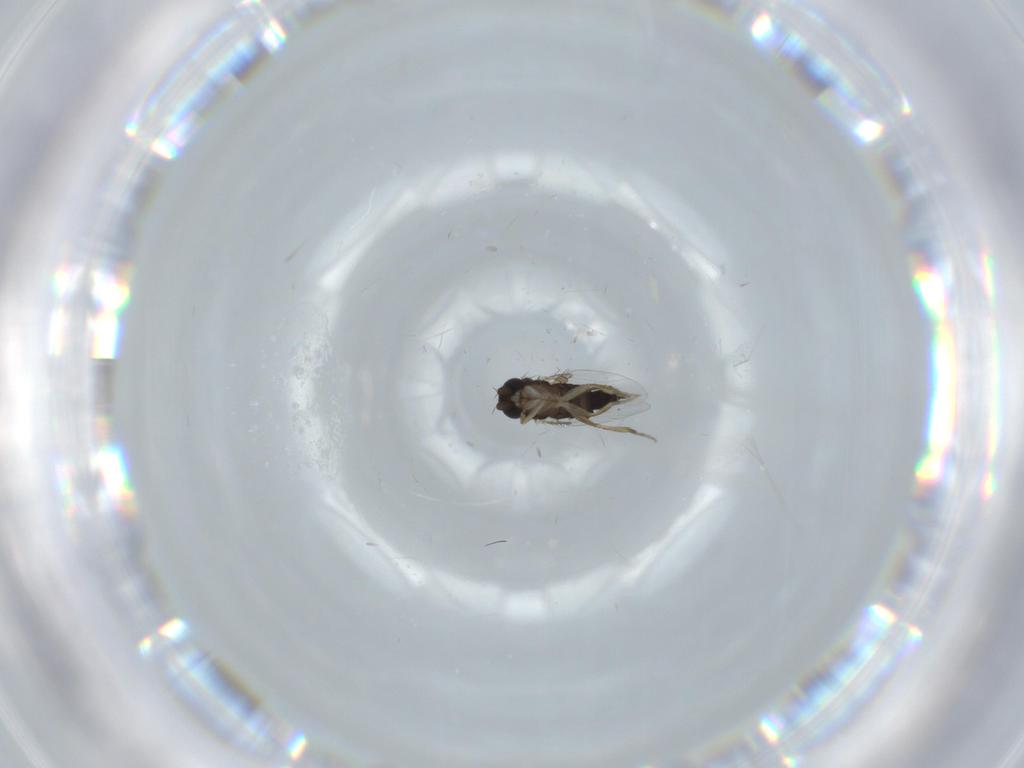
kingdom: Animalia
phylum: Arthropoda
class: Insecta
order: Diptera
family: Phoridae
